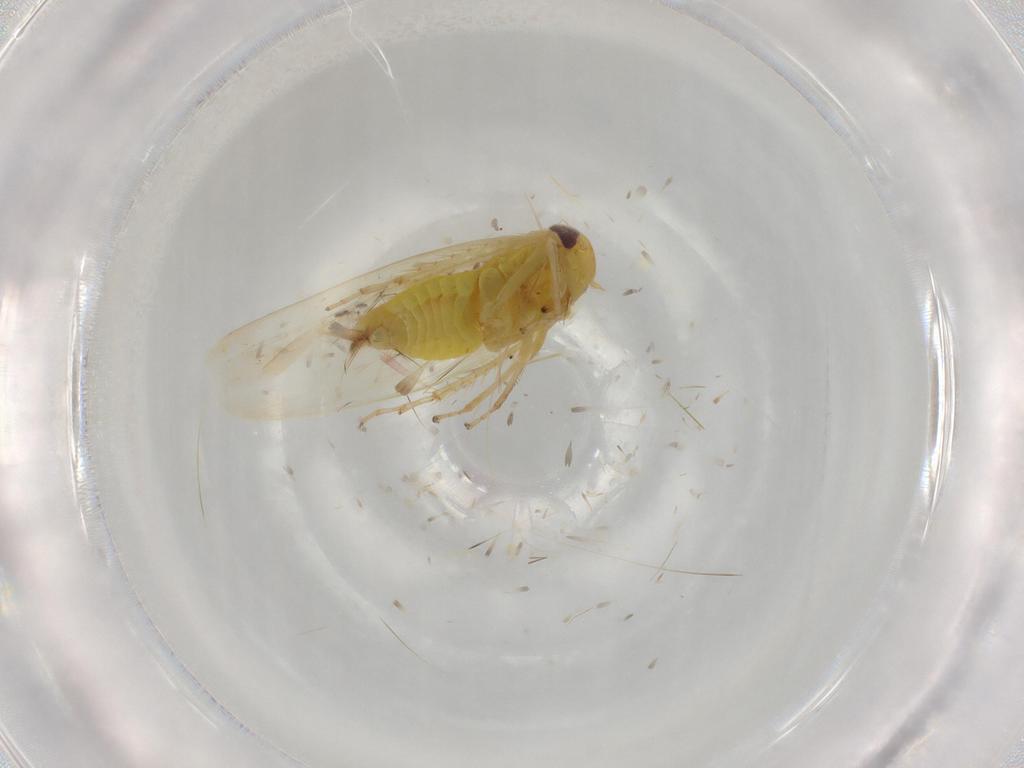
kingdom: Animalia
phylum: Arthropoda
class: Insecta
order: Hemiptera
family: Cicadellidae
